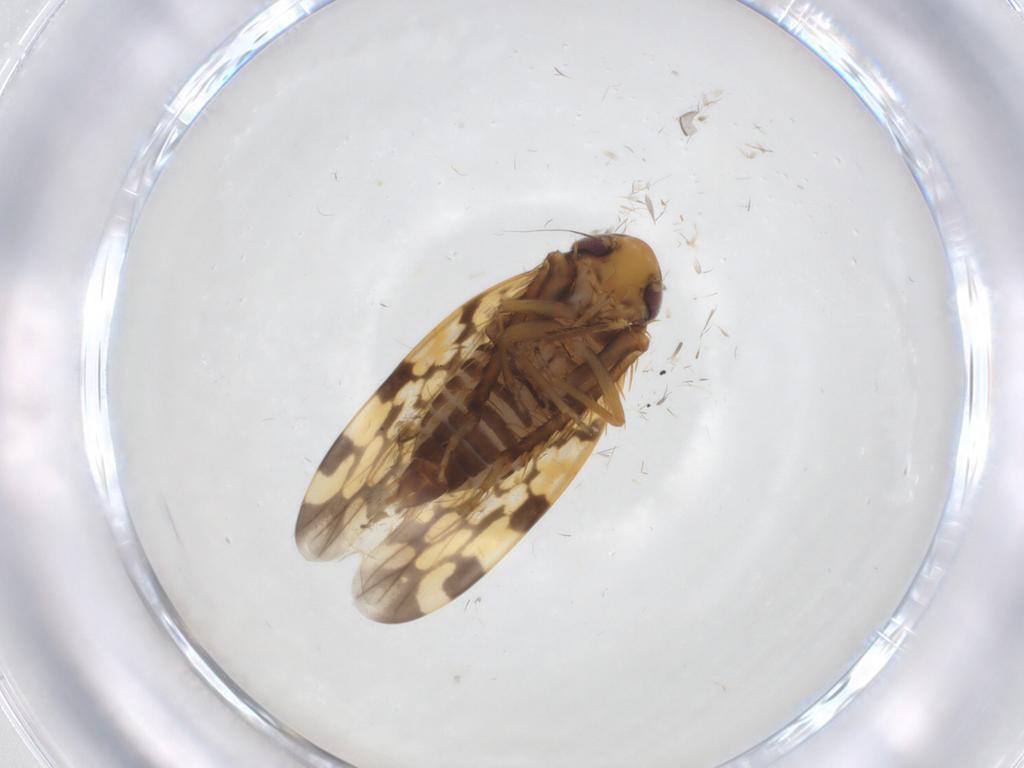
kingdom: Animalia
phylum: Arthropoda
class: Insecta
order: Hemiptera
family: Cicadellidae
